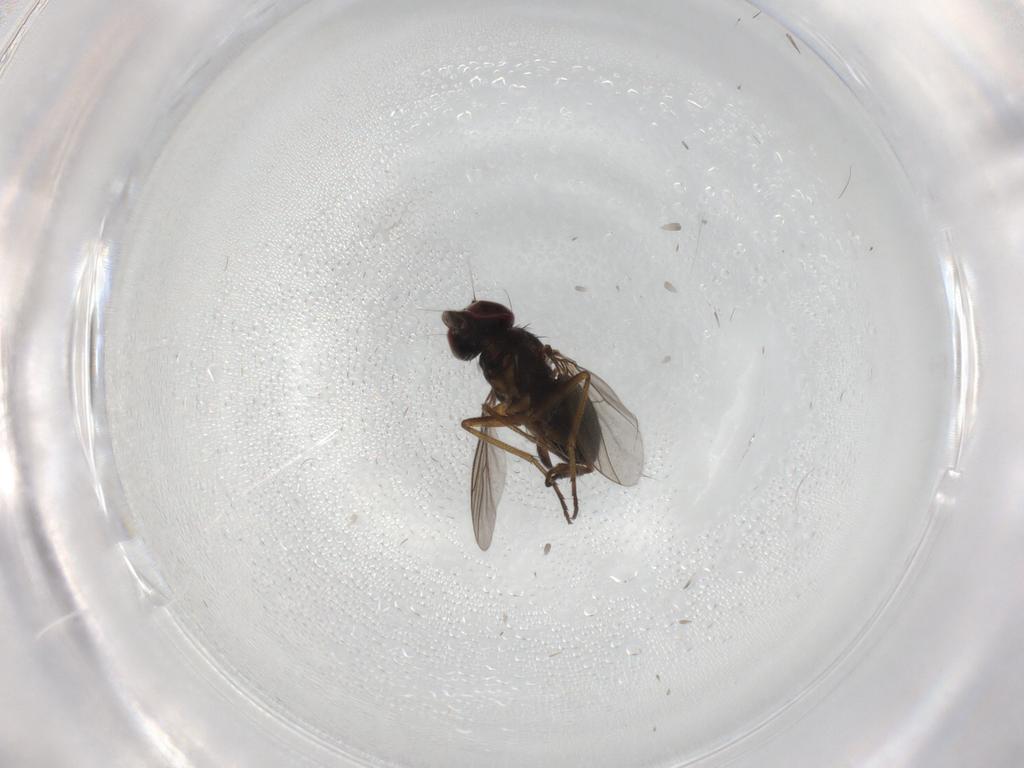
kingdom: Animalia
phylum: Arthropoda
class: Insecta
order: Diptera
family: Dolichopodidae
